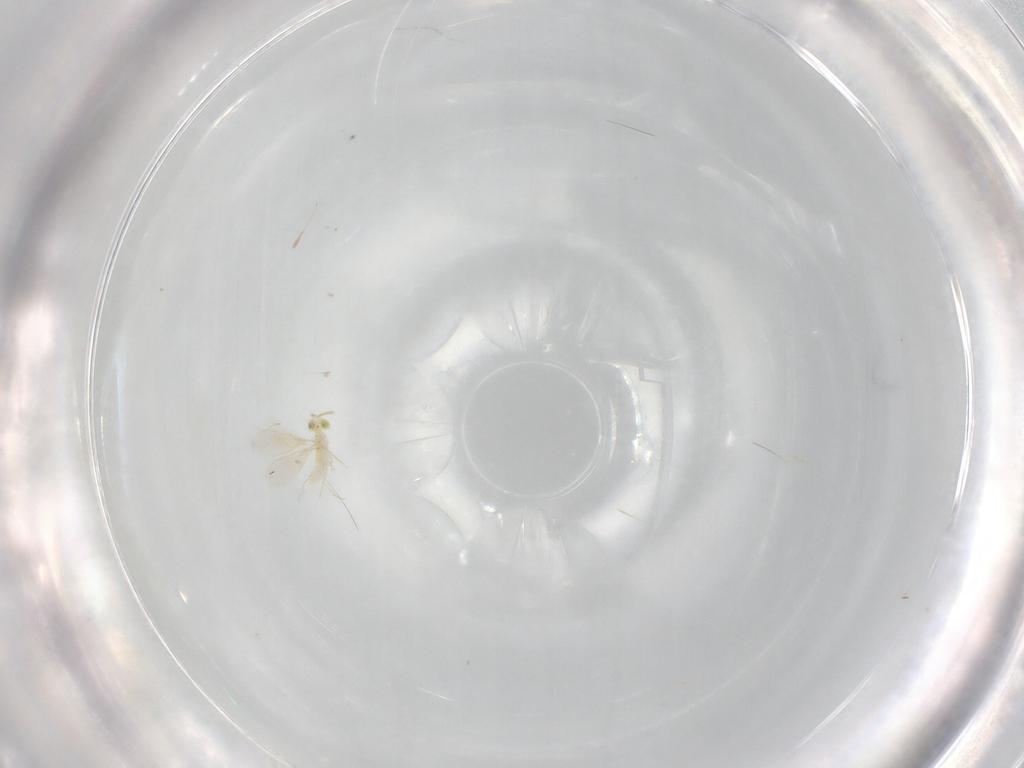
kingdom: Animalia
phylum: Arthropoda
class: Insecta
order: Hymenoptera
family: Aphelinidae
